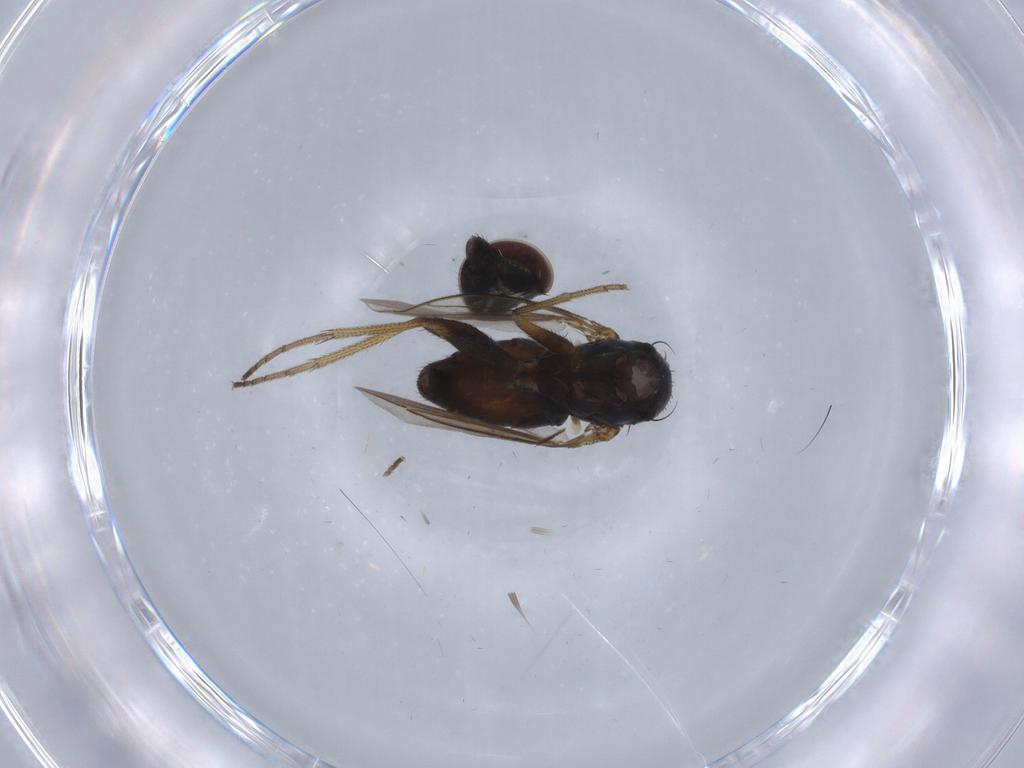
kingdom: Animalia
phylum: Arthropoda
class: Insecta
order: Diptera
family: Dolichopodidae
